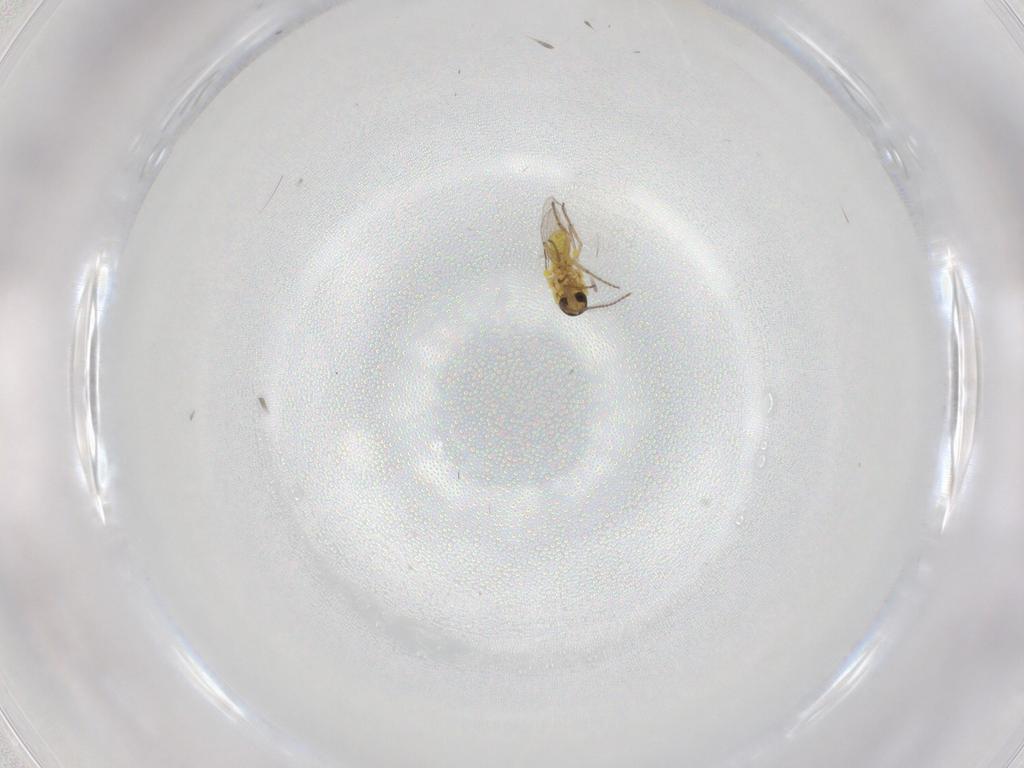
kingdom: Animalia
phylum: Arthropoda
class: Insecta
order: Diptera
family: Ceratopogonidae
